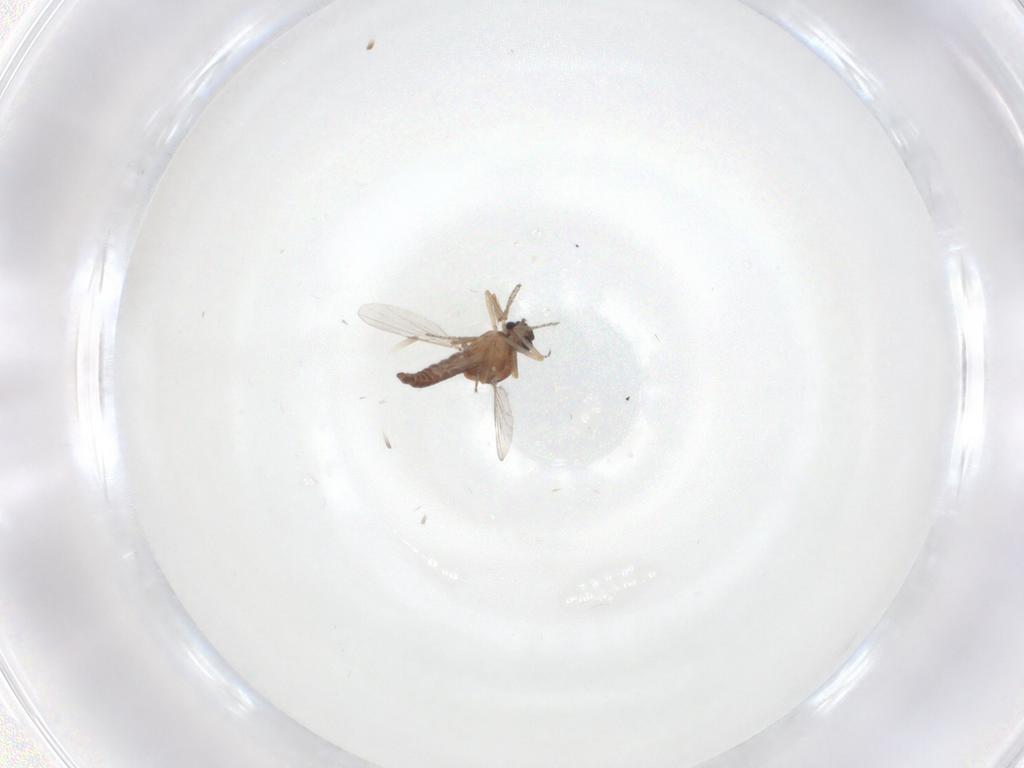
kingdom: Animalia
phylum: Arthropoda
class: Insecta
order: Diptera
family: Ceratopogonidae
